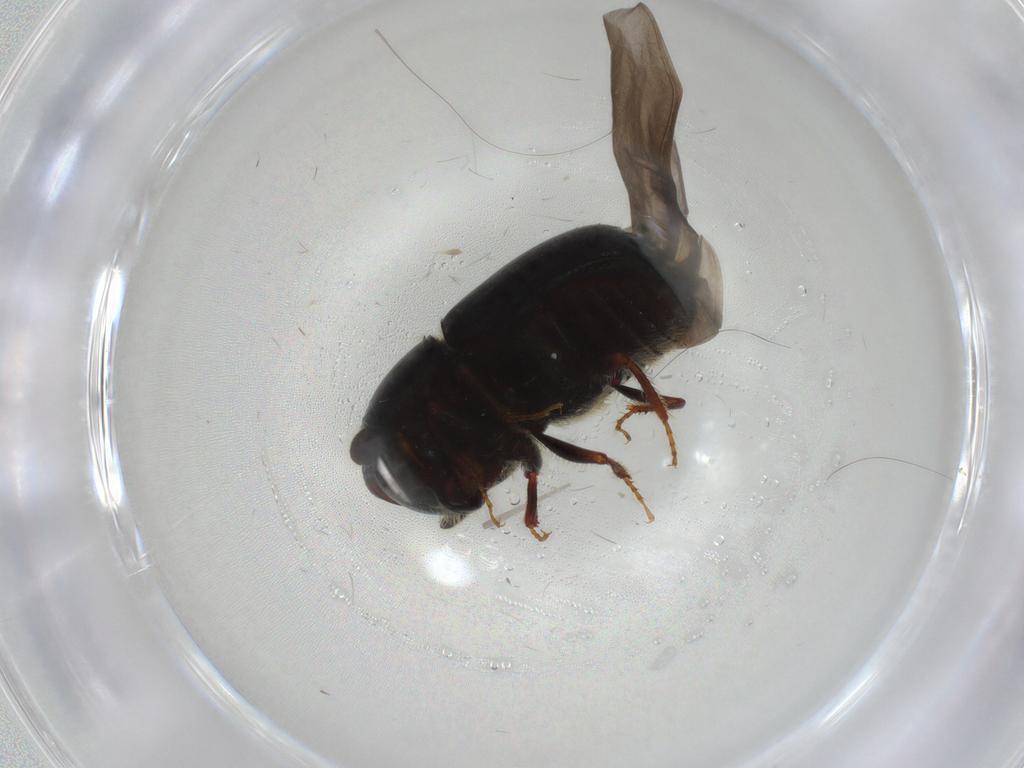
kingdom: Animalia
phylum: Arthropoda
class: Insecta
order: Coleoptera
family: Curculionidae
